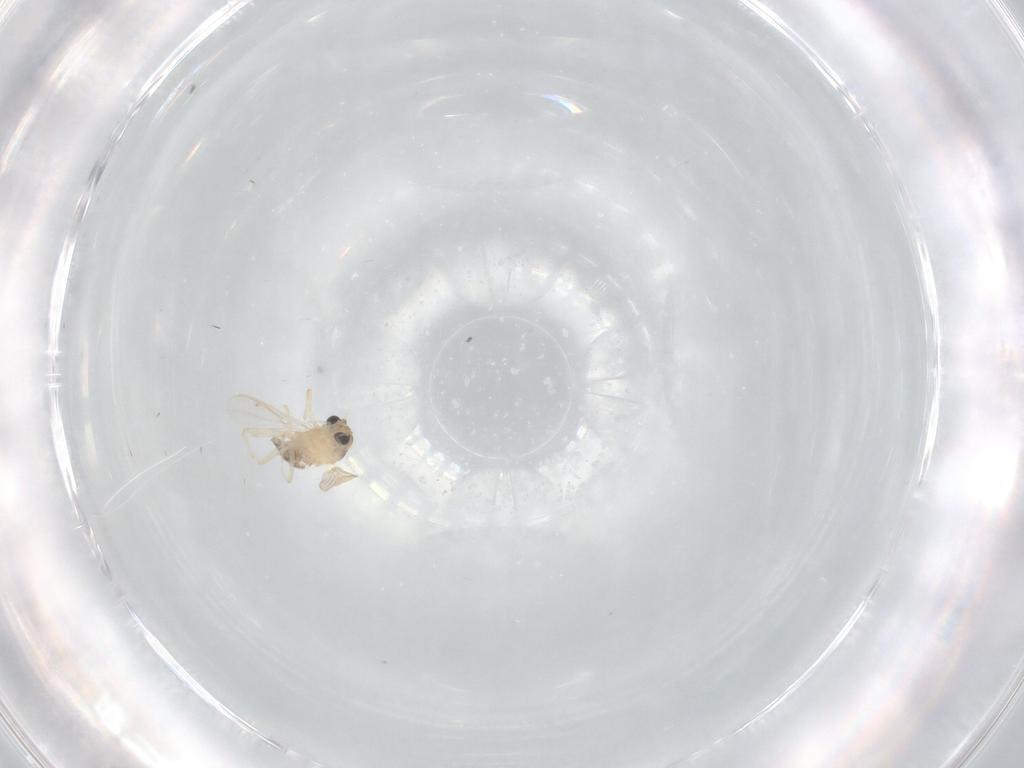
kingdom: Animalia
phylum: Arthropoda
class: Insecta
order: Diptera
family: Chironomidae
